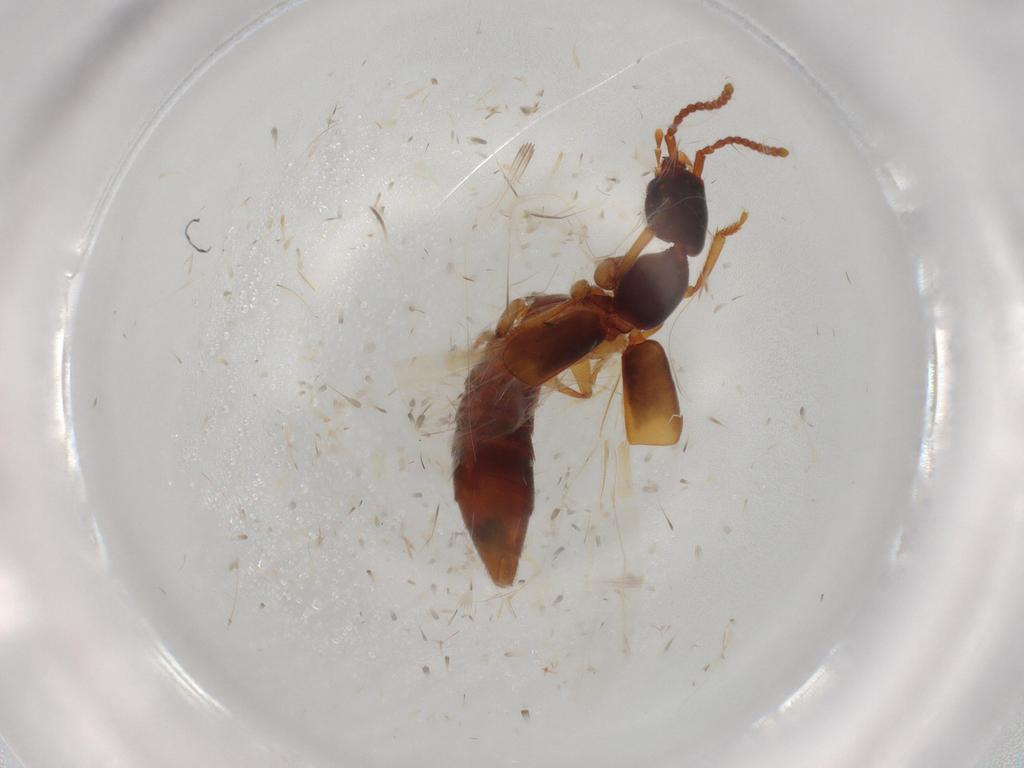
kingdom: Animalia
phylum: Arthropoda
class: Insecta
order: Coleoptera
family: Staphylinidae
